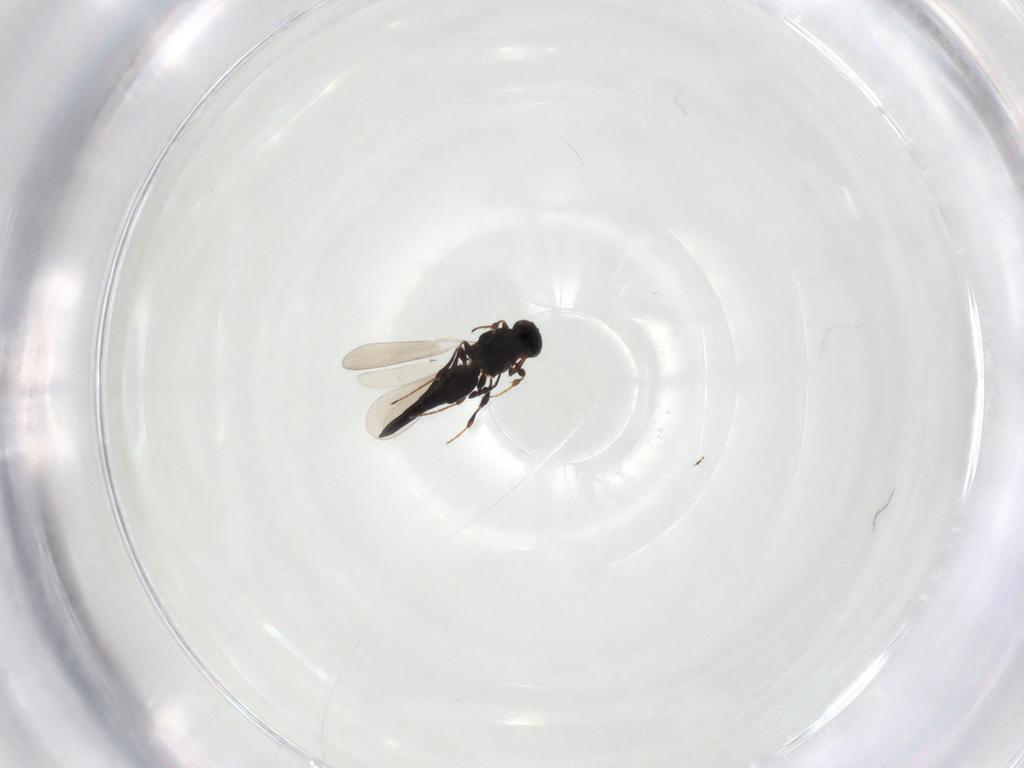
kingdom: Animalia
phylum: Arthropoda
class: Insecta
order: Hymenoptera
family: Platygastridae
